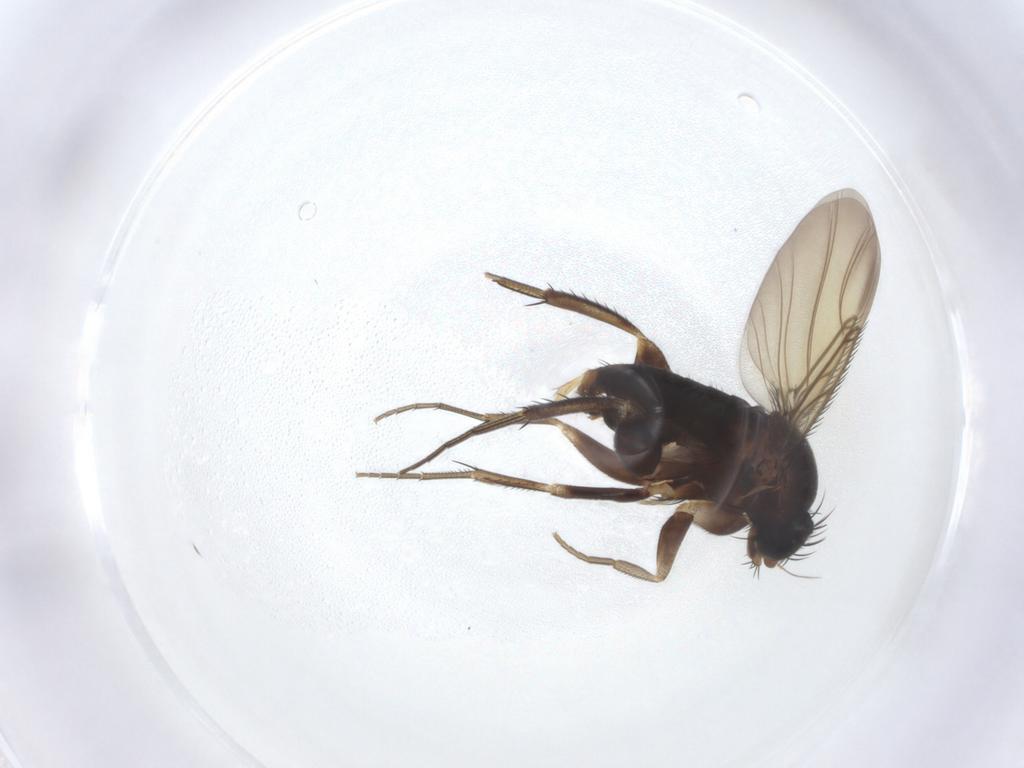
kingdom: Animalia
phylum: Arthropoda
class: Insecta
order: Diptera
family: Phoridae
